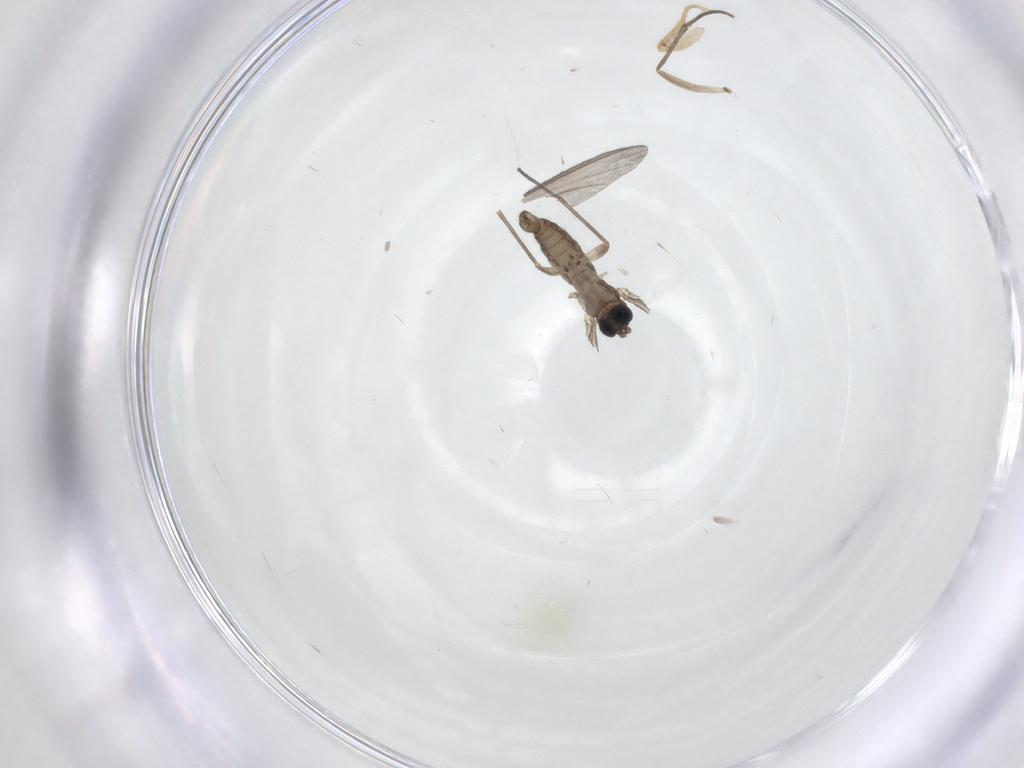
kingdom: Animalia
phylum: Arthropoda
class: Insecta
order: Diptera
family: Sciaridae
